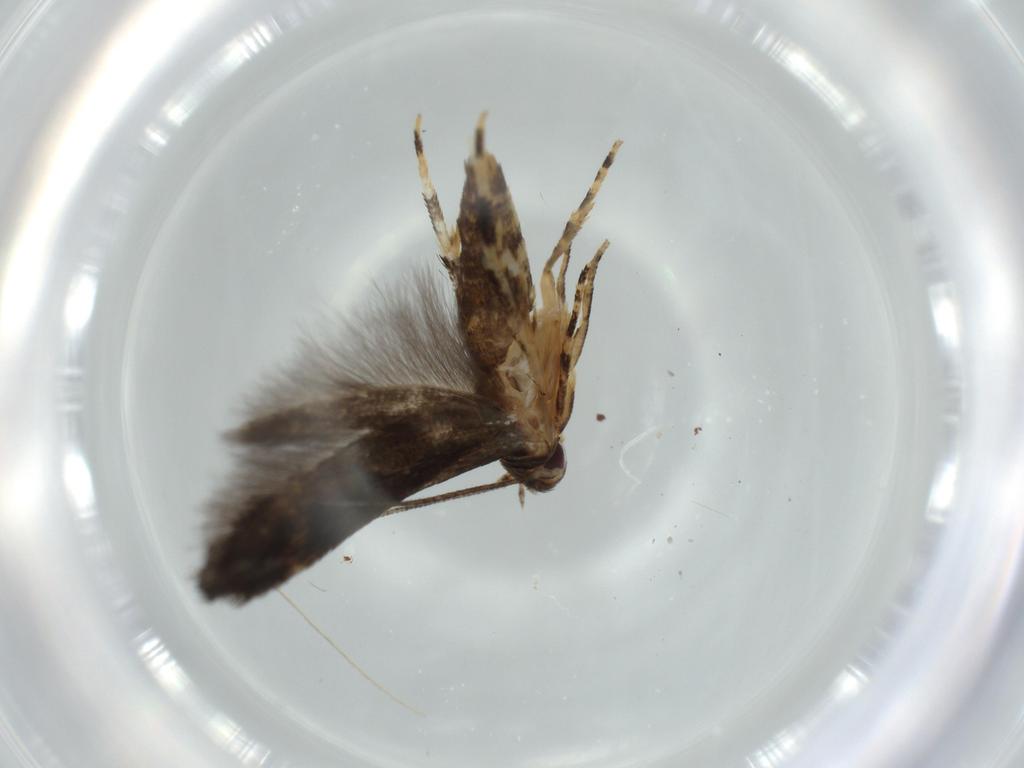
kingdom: Animalia
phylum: Arthropoda
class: Insecta
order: Lepidoptera
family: Momphidae
